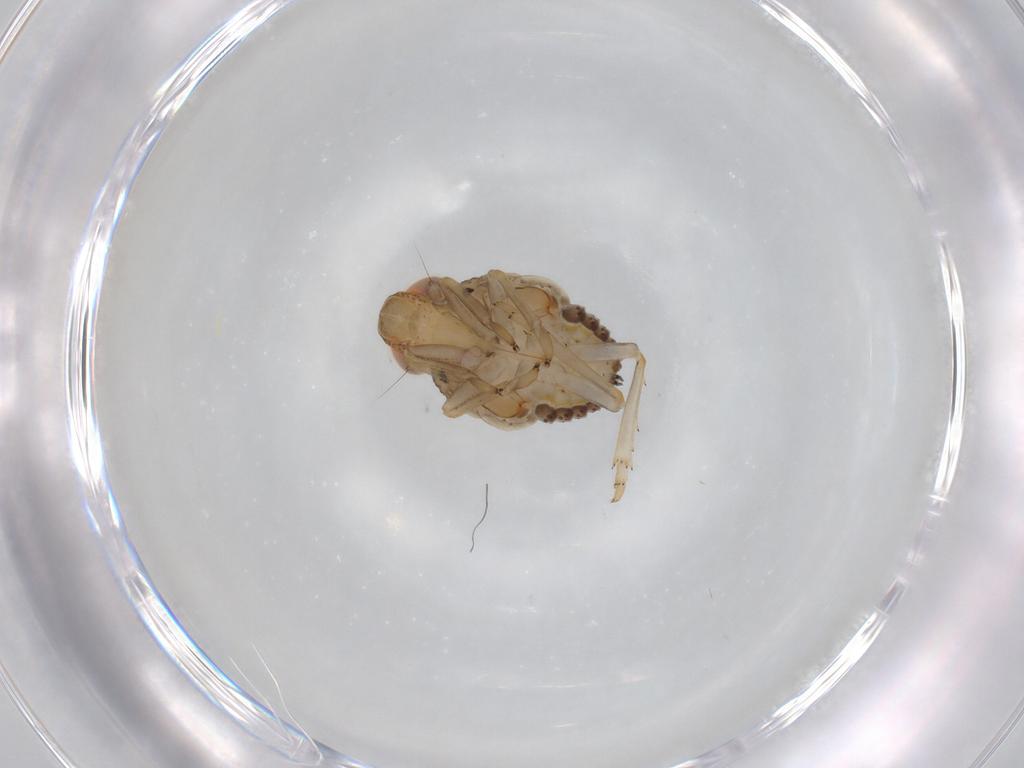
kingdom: Animalia
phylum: Arthropoda
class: Insecta
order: Hemiptera
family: Issidae
